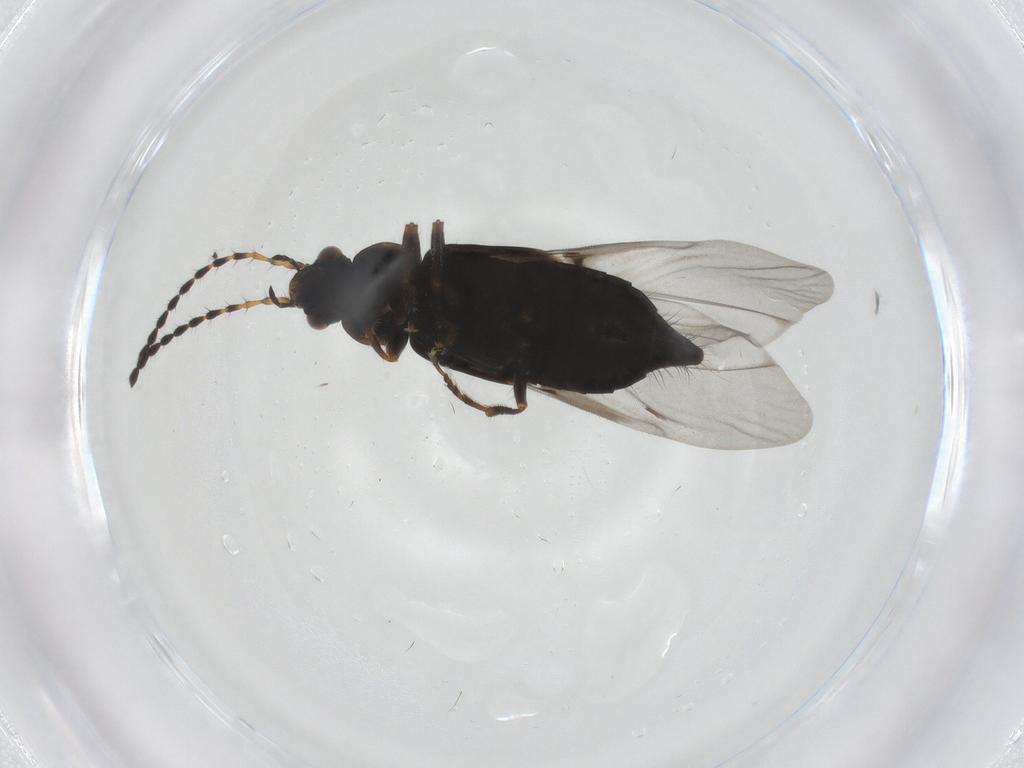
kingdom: Animalia
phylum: Arthropoda
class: Insecta
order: Coleoptera
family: Staphylinidae
